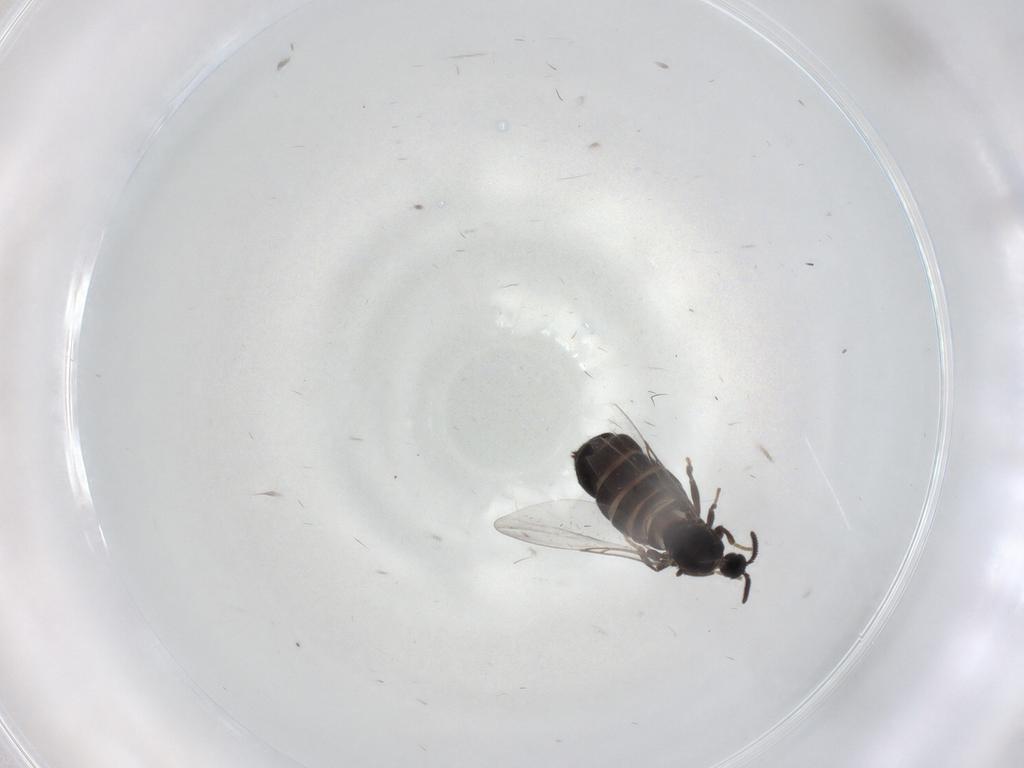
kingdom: Animalia
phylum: Arthropoda
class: Insecta
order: Diptera
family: Scatopsidae
